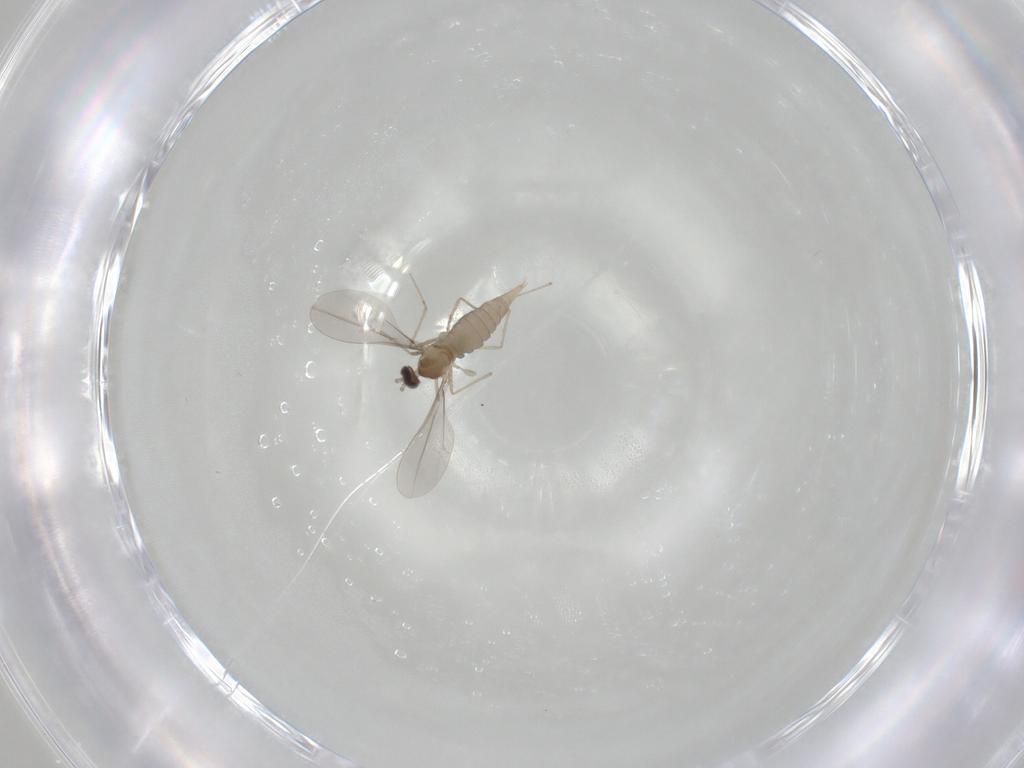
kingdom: Animalia
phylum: Arthropoda
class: Insecta
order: Diptera
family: Cecidomyiidae
